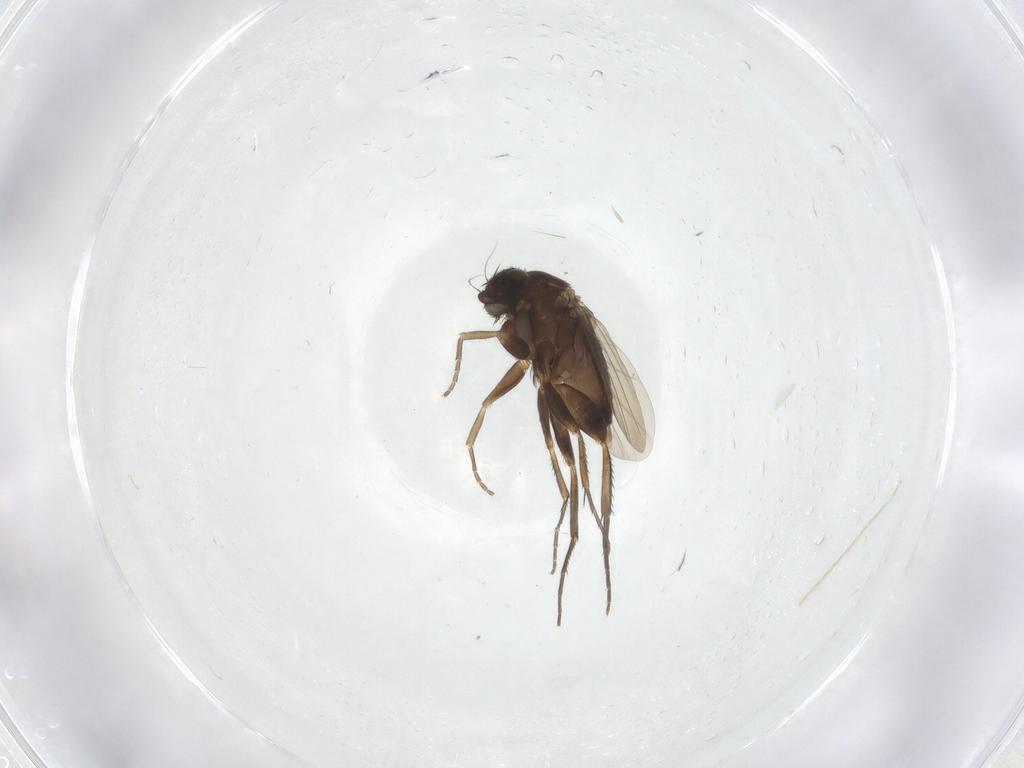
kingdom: Animalia
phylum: Arthropoda
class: Insecta
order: Diptera
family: Phoridae
